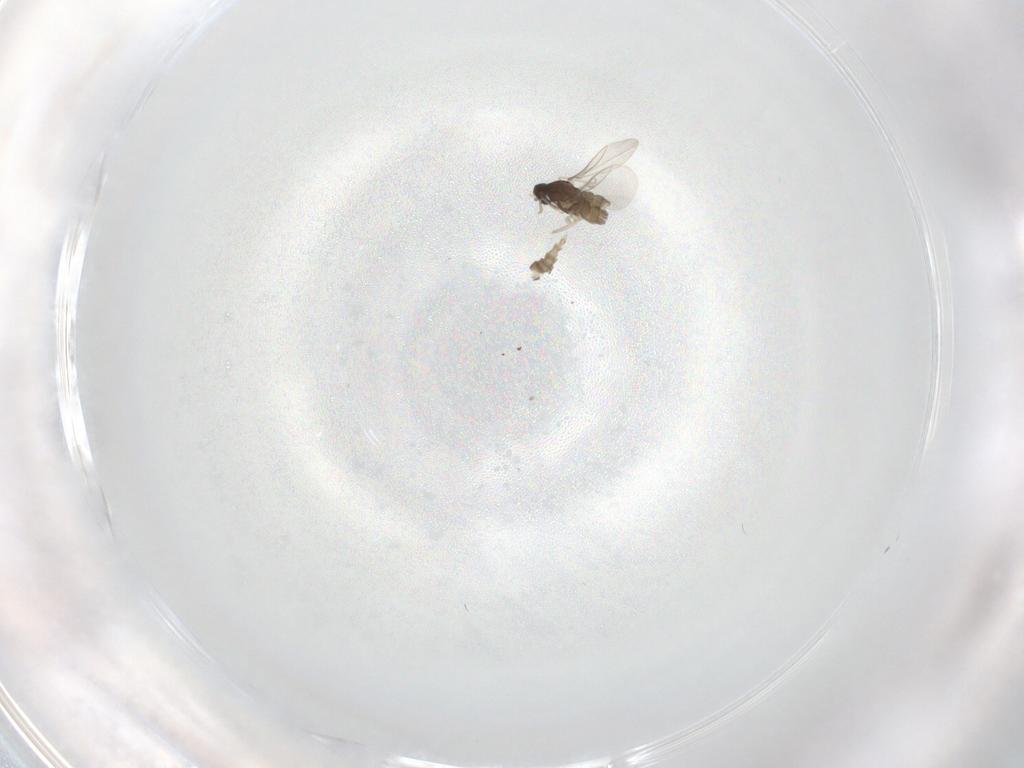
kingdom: Animalia
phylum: Arthropoda
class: Insecta
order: Diptera
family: Cecidomyiidae
